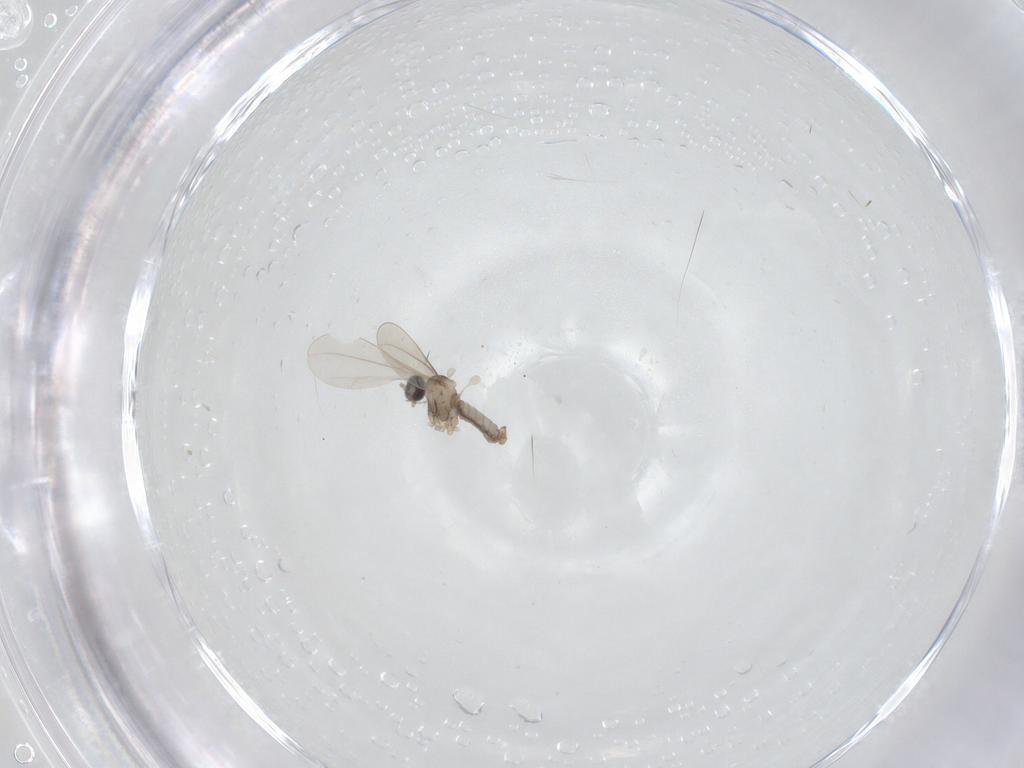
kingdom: Animalia
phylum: Arthropoda
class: Insecta
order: Diptera
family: Cecidomyiidae
